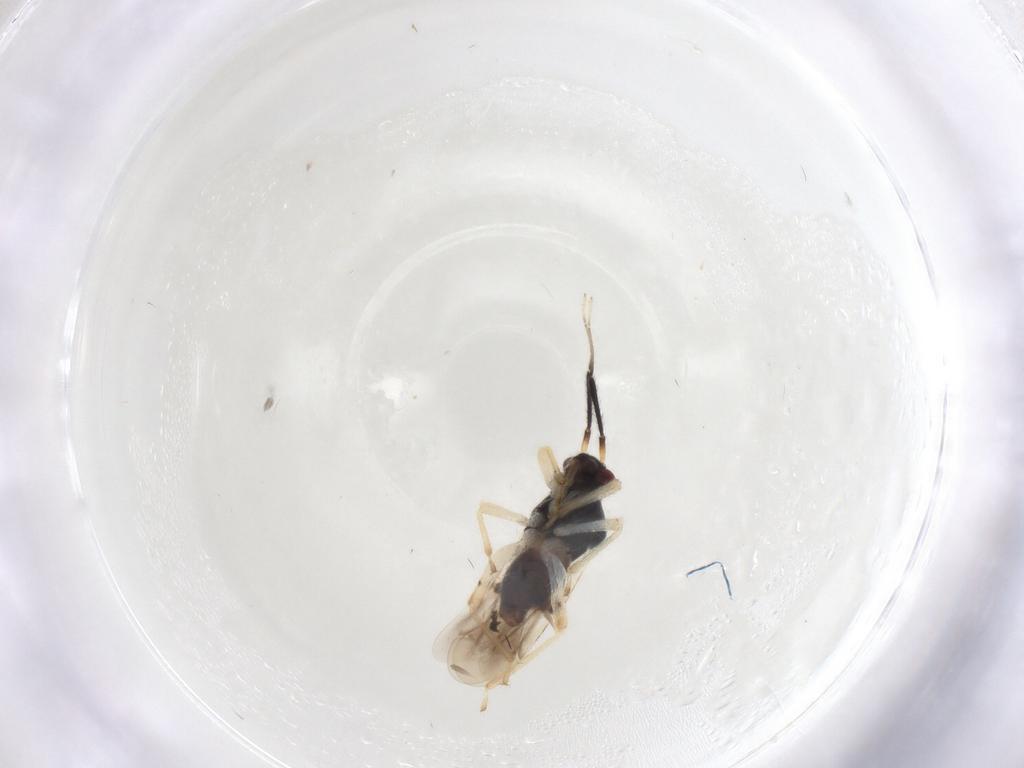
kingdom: Animalia
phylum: Arthropoda
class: Insecta
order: Hemiptera
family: Miridae
